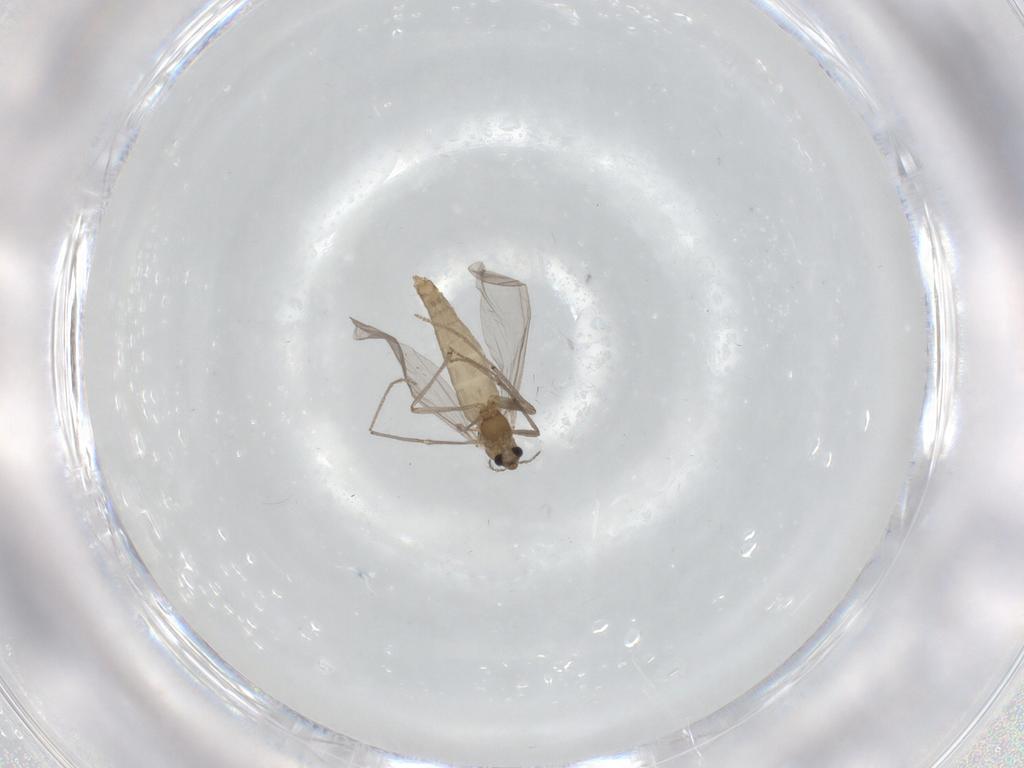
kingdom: Animalia
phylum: Arthropoda
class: Insecta
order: Diptera
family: Chironomidae
